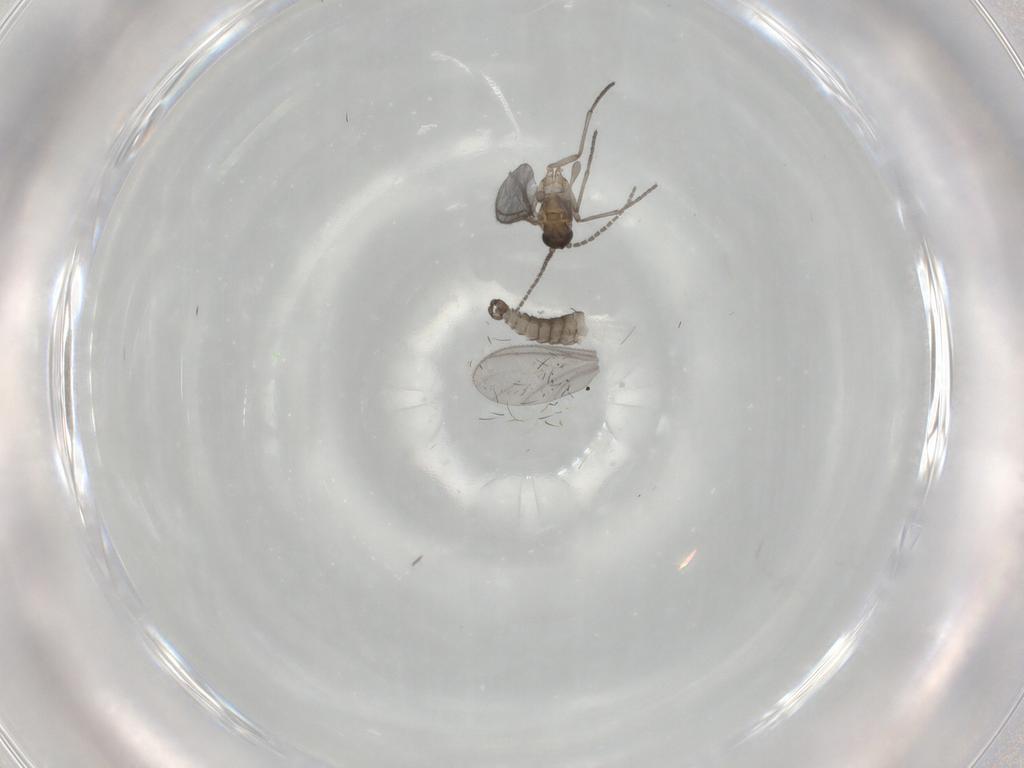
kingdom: Animalia
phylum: Arthropoda
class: Insecta
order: Diptera
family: Sciaridae
